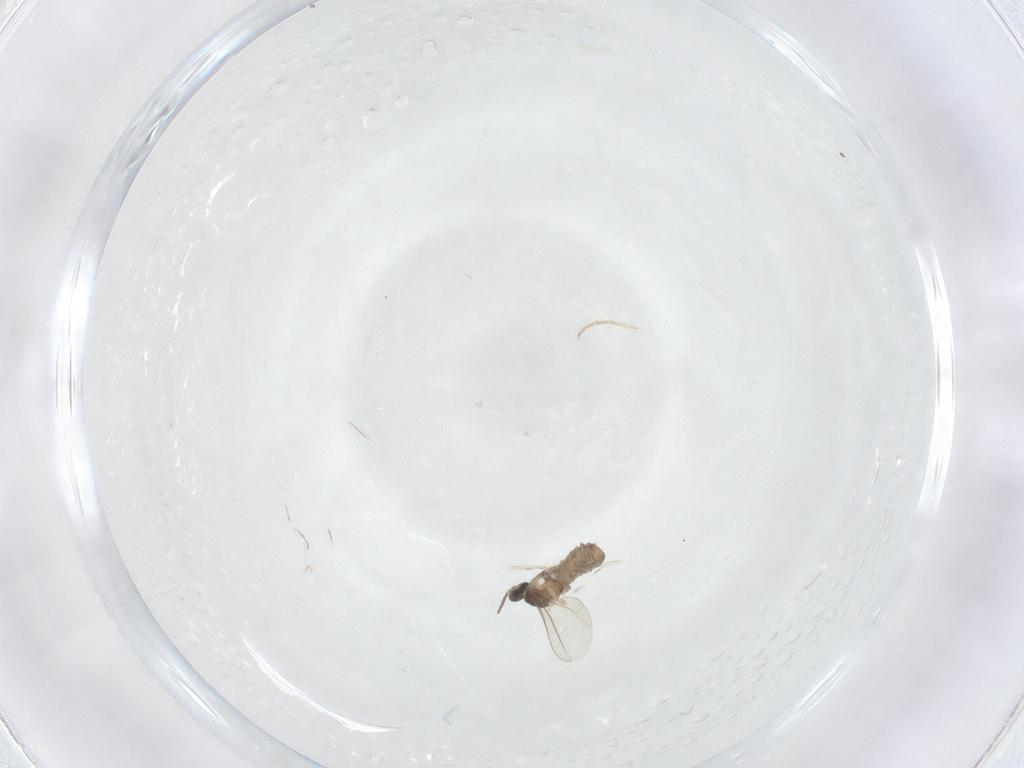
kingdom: Animalia
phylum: Arthropoda
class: Insecta
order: Diptera
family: Cecidomyiidae
